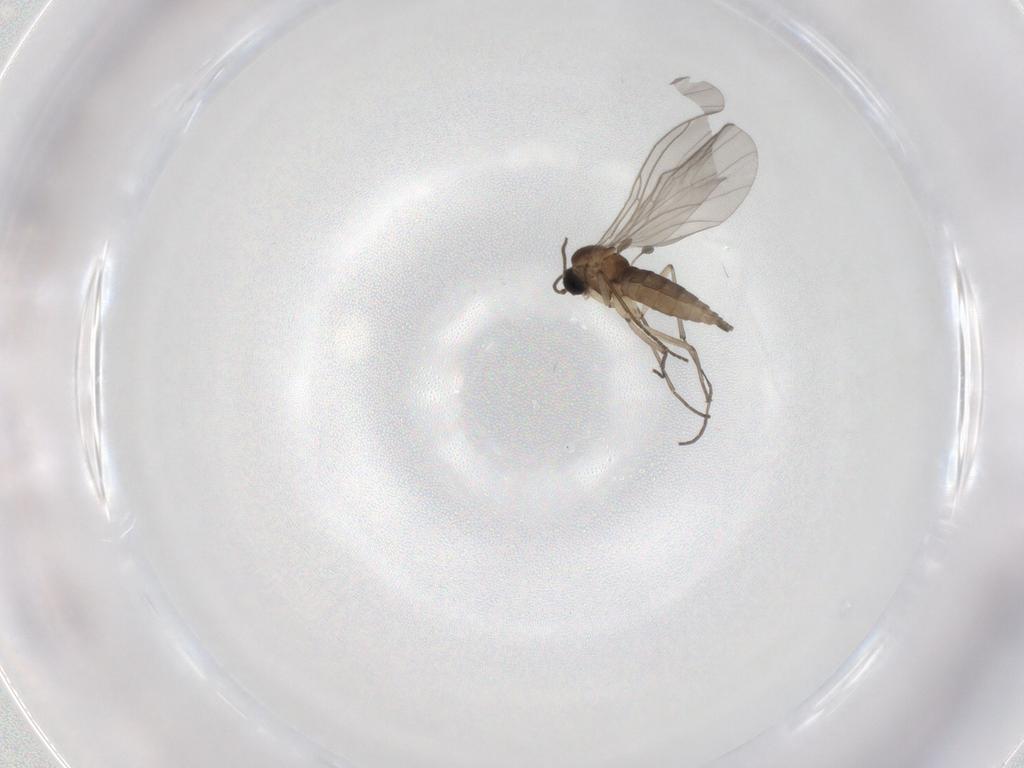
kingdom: Animalia
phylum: Arthropoda
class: Insecta
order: Diptera
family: Sciaridae
